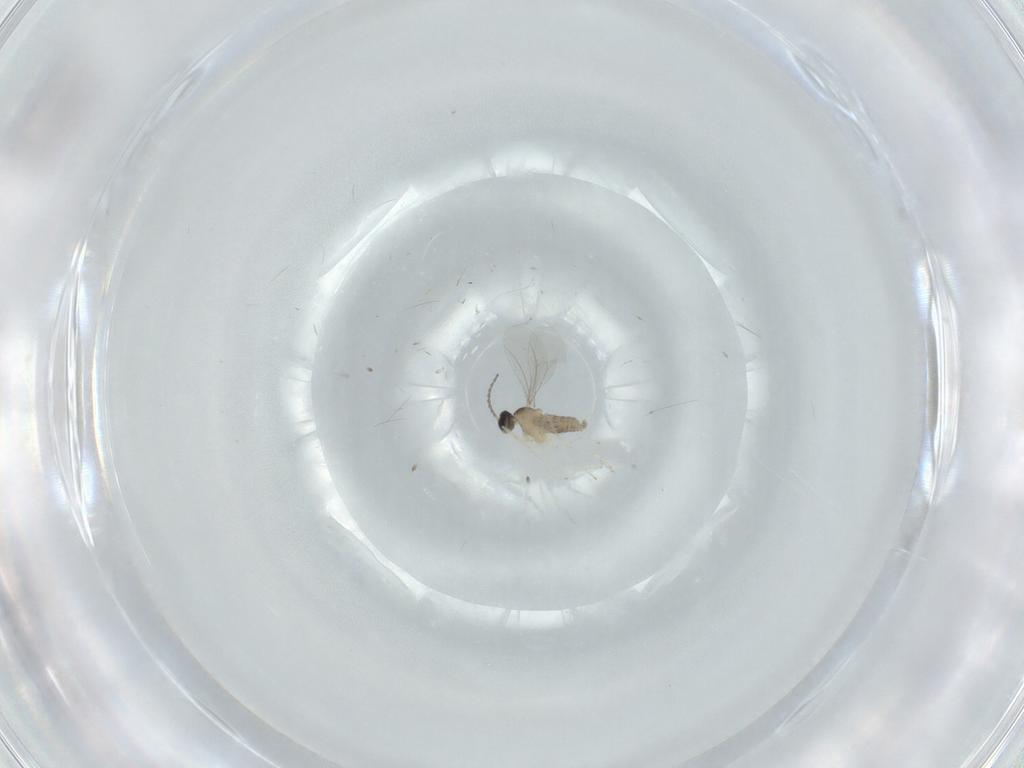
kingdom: Animalia
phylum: Arthropoda
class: Insecta
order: Diptera
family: Cecidomyiidae
